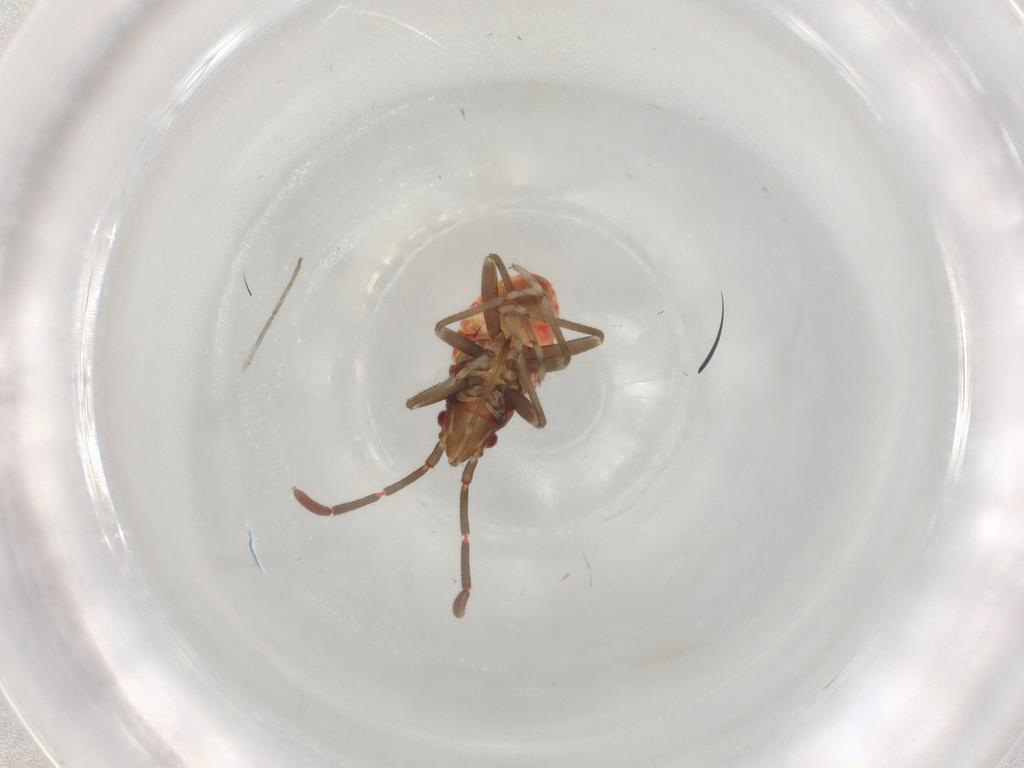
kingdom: Animalia
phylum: Arthropoda
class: Insecta
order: Hemiptera
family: Rhyparochromidae
